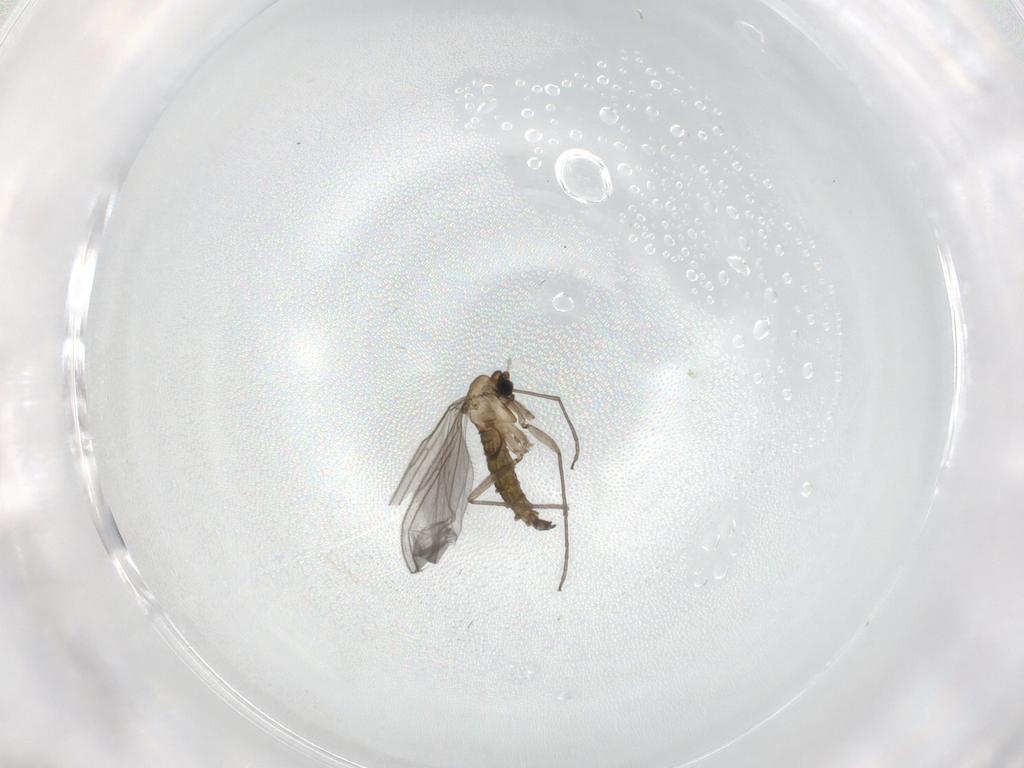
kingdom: Animalia
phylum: Arthropoda
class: Insecta
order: Diptera
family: Sciaridae
